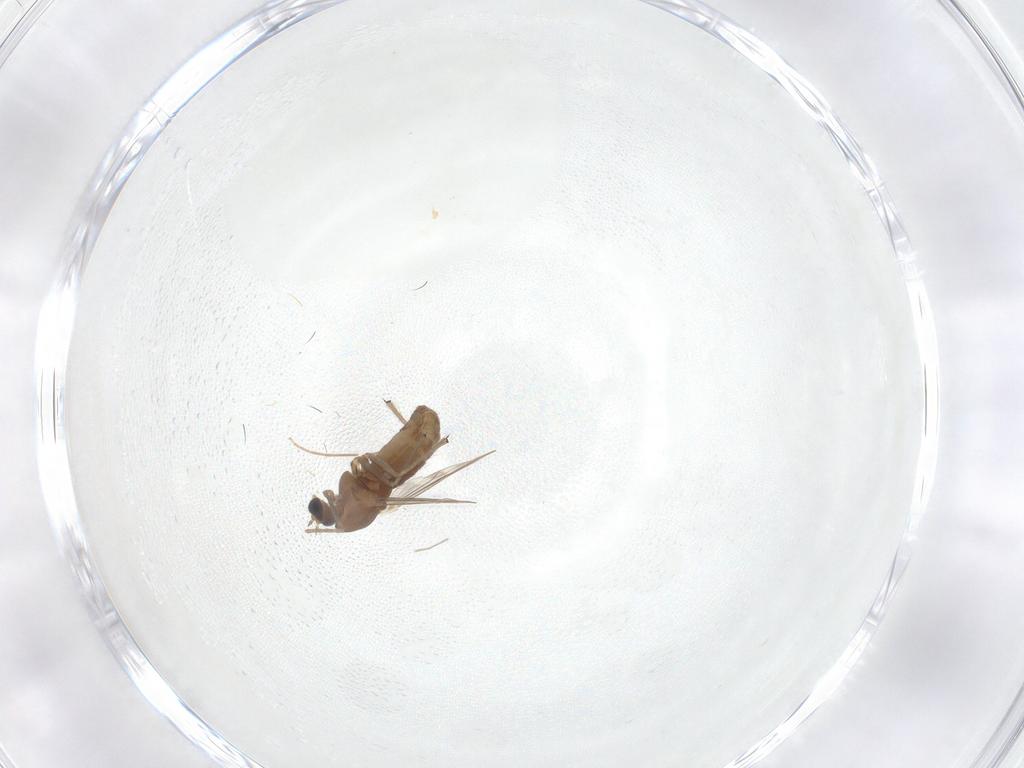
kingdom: Animalia
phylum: Arthropoda
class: Insecta
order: Diptera
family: Chironomidae
